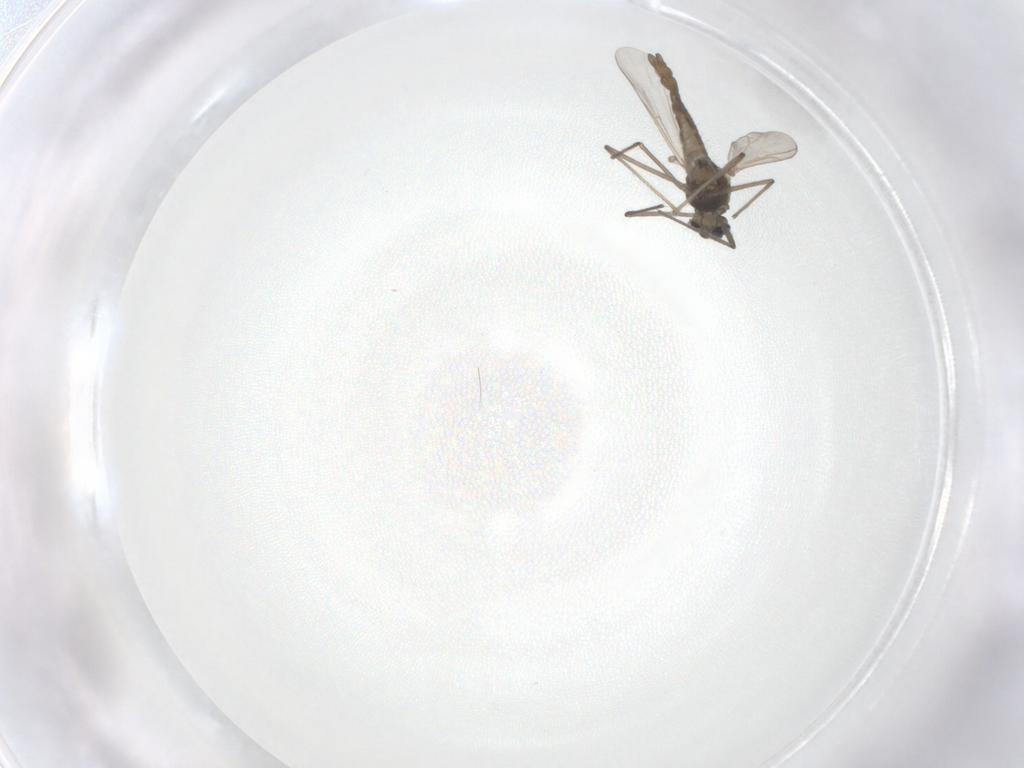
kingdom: Animalia
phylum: Arthropoda
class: Insecta
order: Diptera
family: Chironomidae
